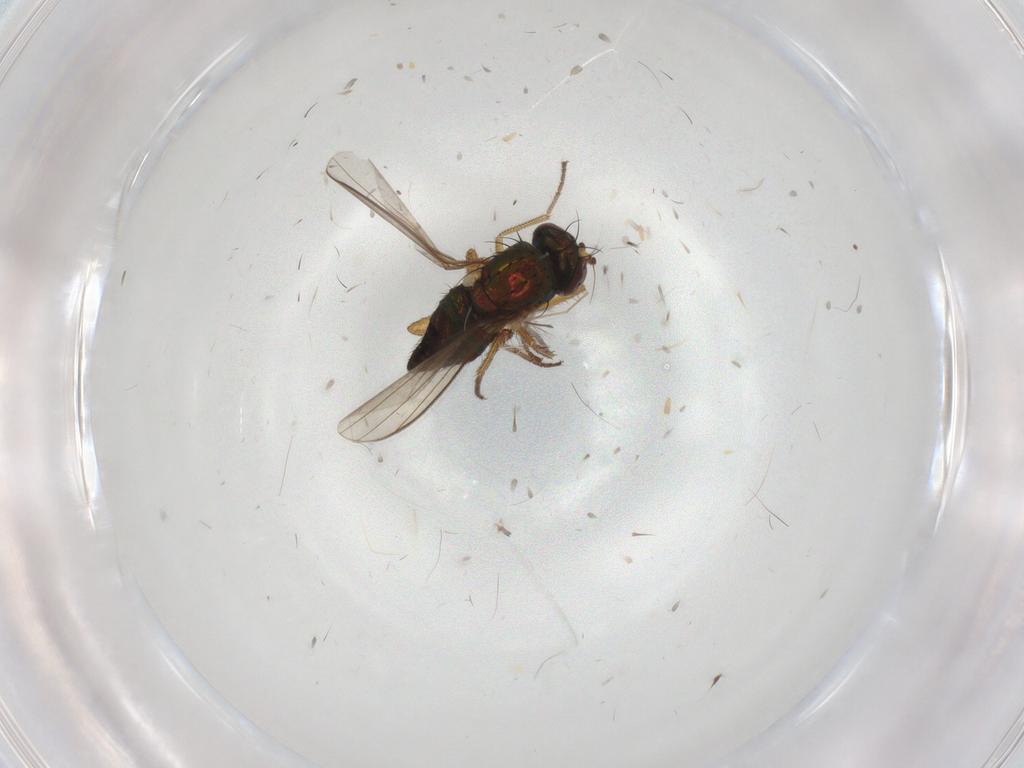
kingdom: Animalia
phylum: Arthropoda
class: Insecta
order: Diptera
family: Chironomidae
